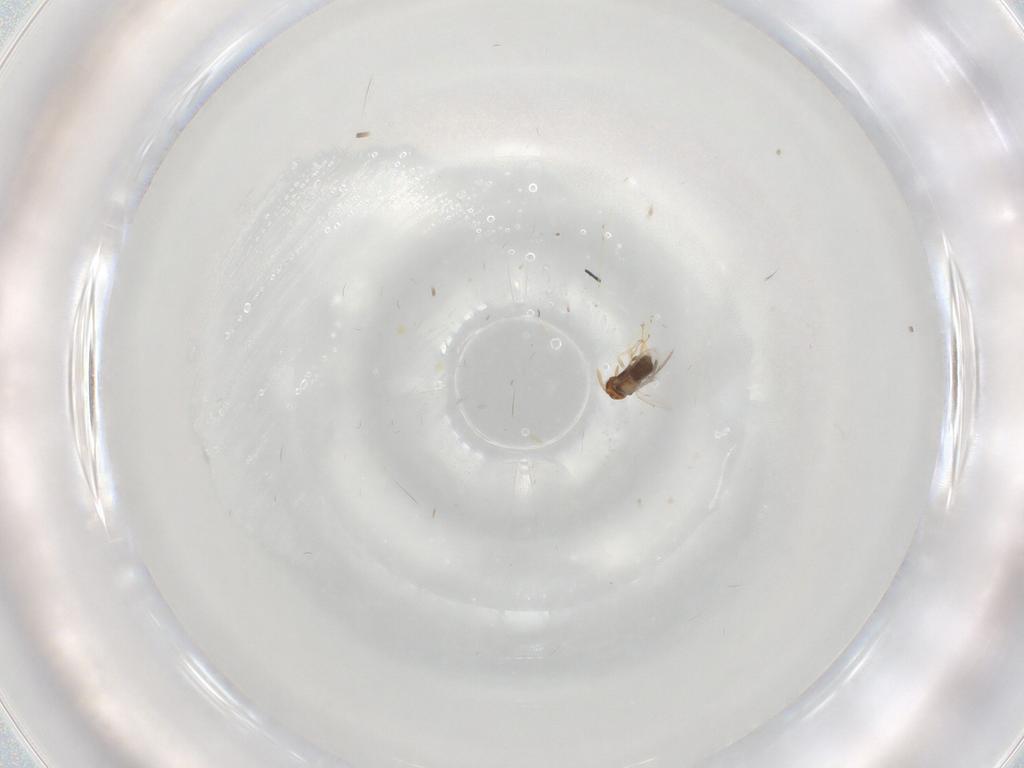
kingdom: Animalia
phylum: Arthropoda
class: Insecta
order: Hymenoptera
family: Aphelinidae
